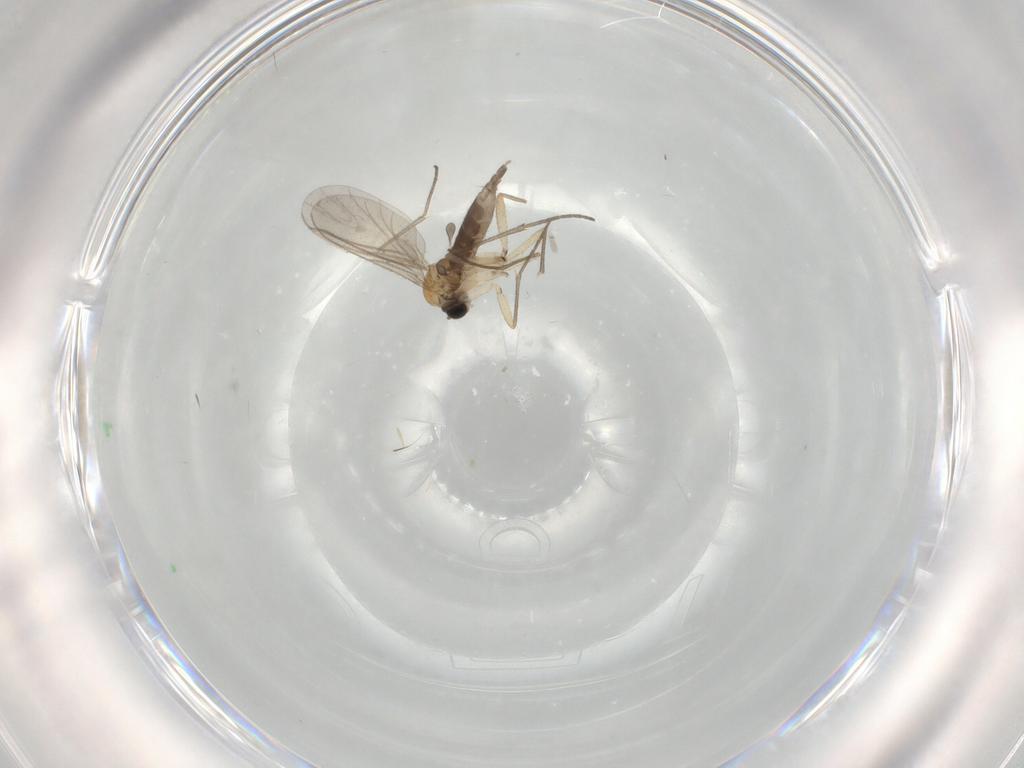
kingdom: Animalia
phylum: Arthropoda
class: Insecta
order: Diptera
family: Sciaridae
